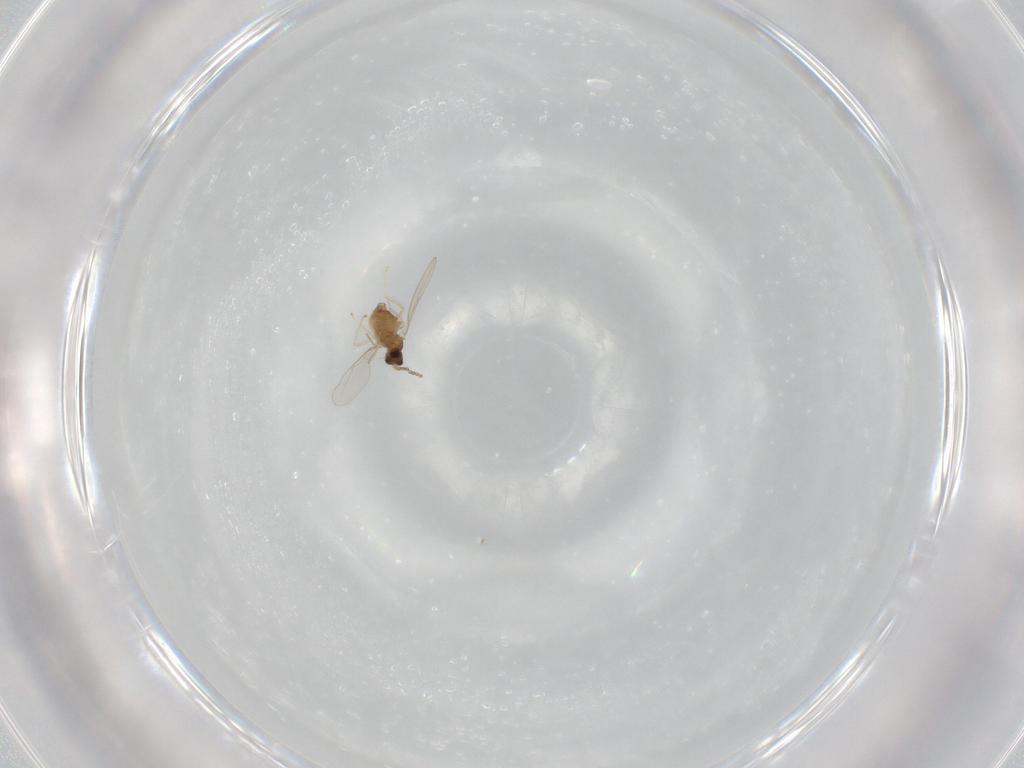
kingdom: Animalia
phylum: Arthropoda
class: Insecta
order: Diptera
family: Cecidomyiidae
